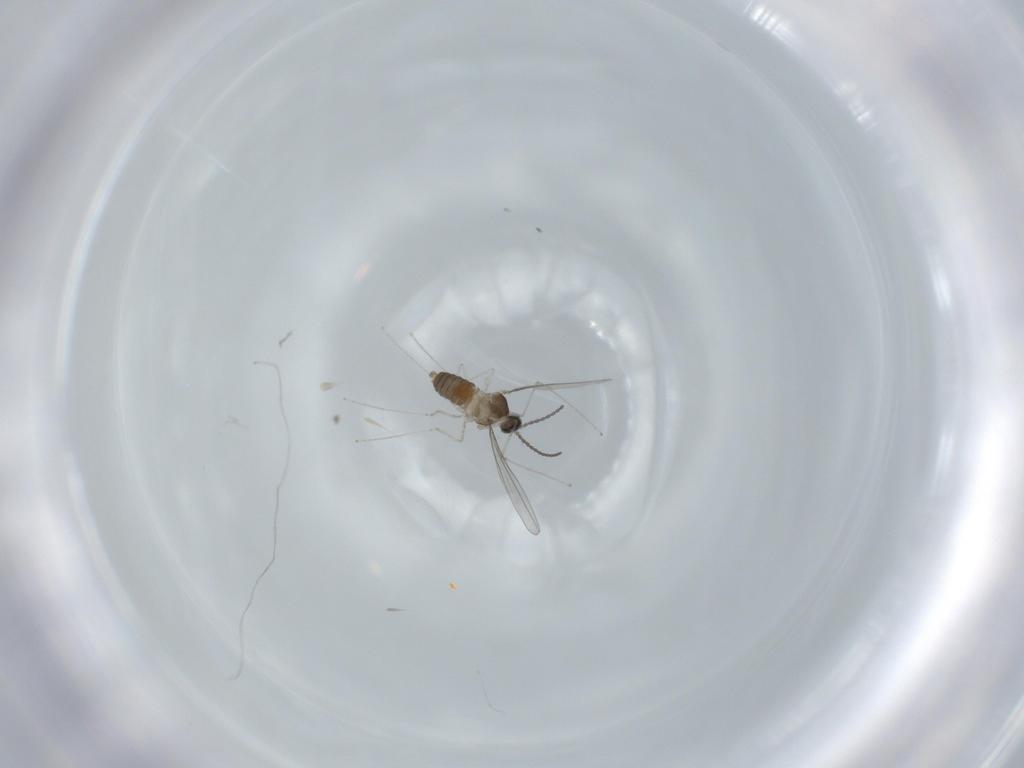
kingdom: Animalia
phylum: Arthropoda
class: Insecta
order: Diptera
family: Cecidomyiidae
